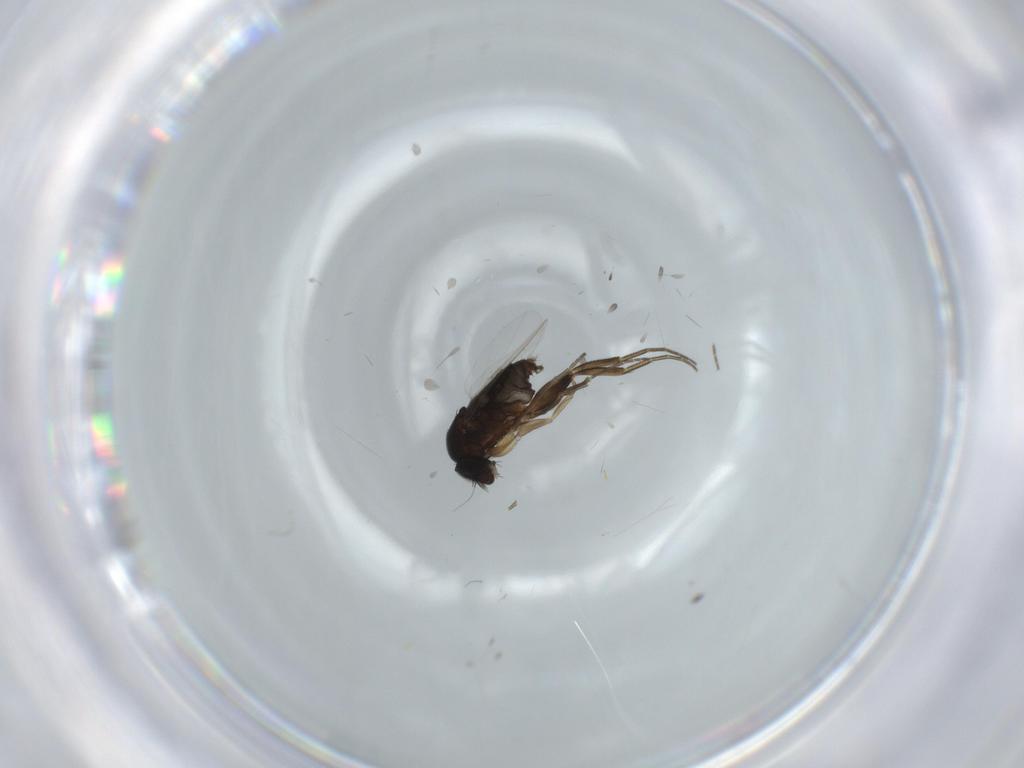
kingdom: Animalia
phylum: Arthropoda
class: Insecta
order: Diptera
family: Phoridae
